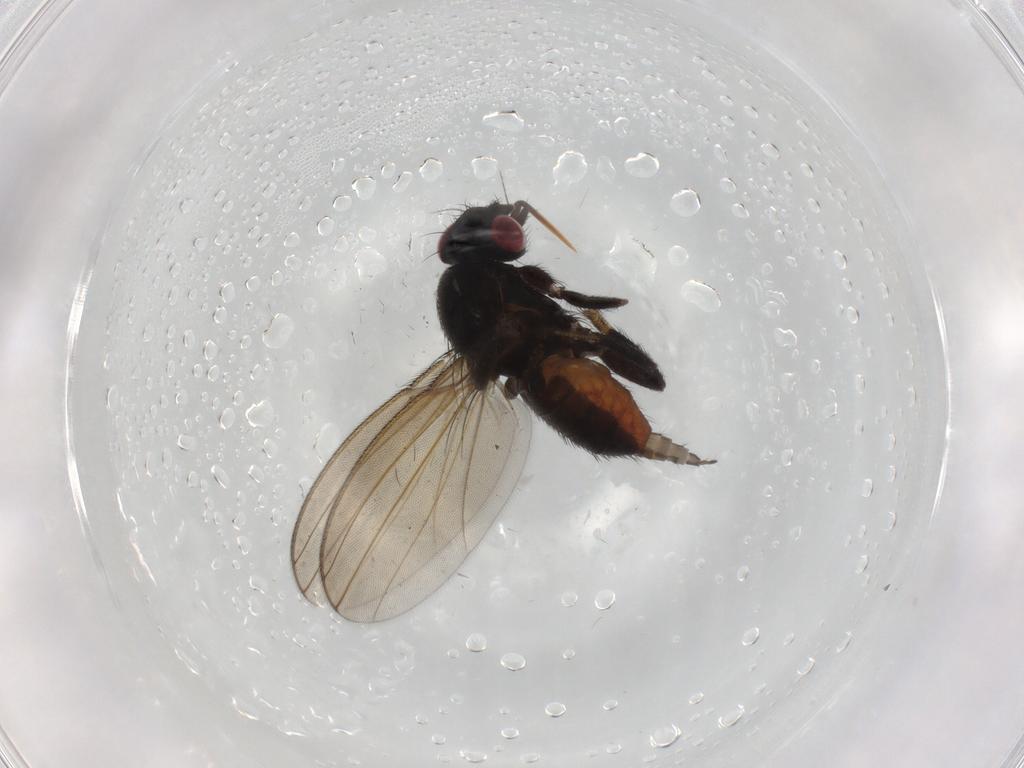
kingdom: Animalia
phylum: Arthropoda
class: Insecta
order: Diptera
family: Milichiidae
